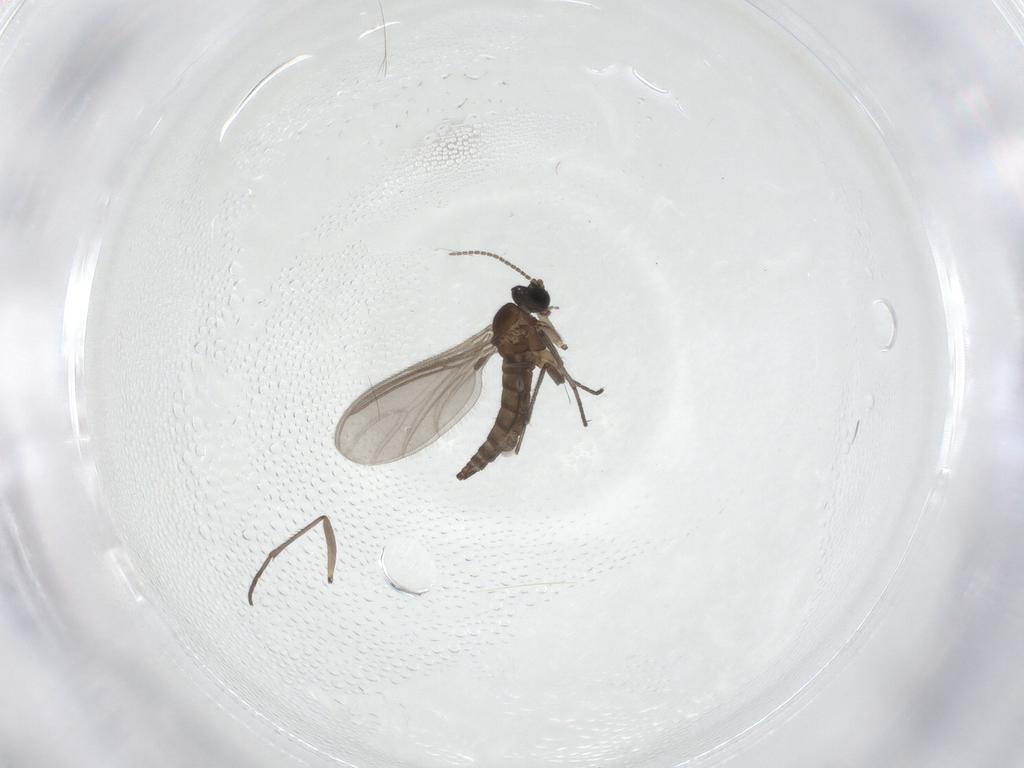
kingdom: Animalia
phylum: Arthropoda
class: Insecta
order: Diptera
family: Sciaridae
